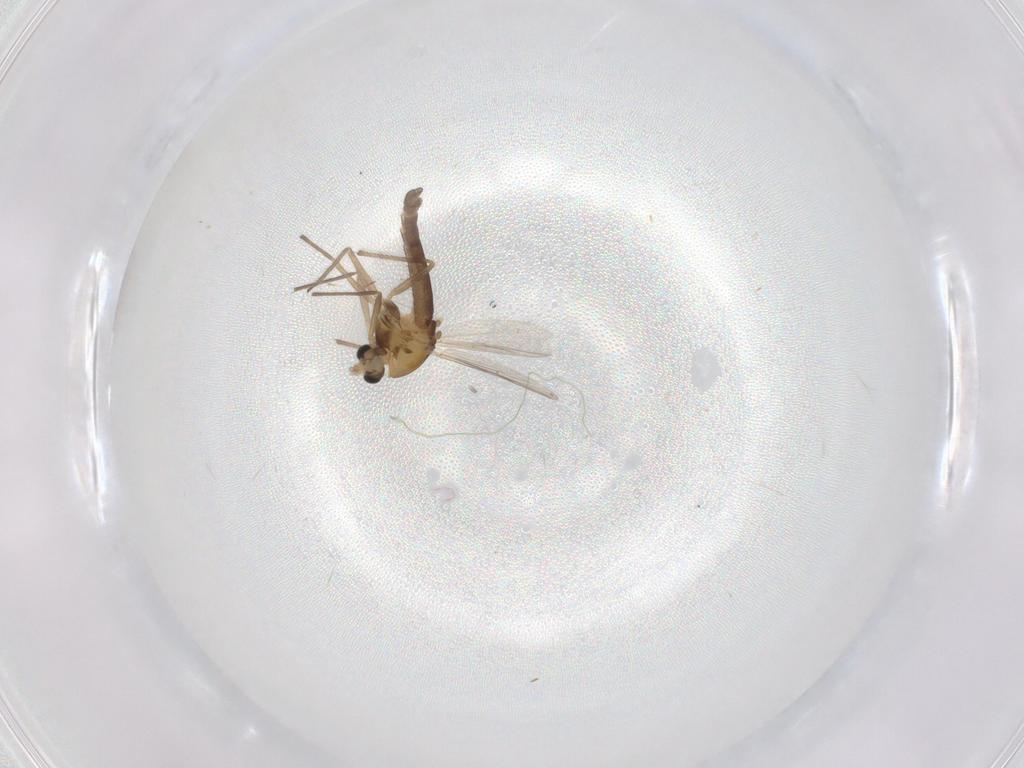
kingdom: Animalia
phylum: Arthropoda
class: Insecta
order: Diptera
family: Chironomidae
